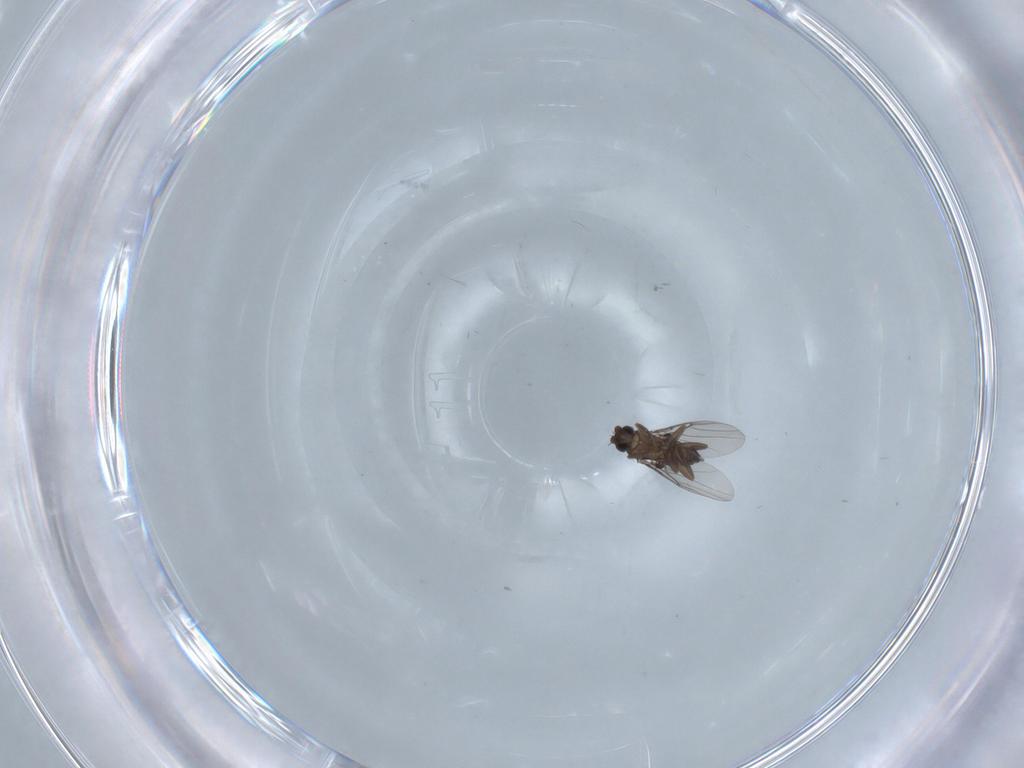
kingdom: Animalia
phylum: Arthropoda
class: Insecta
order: Diptera
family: Phoridae
